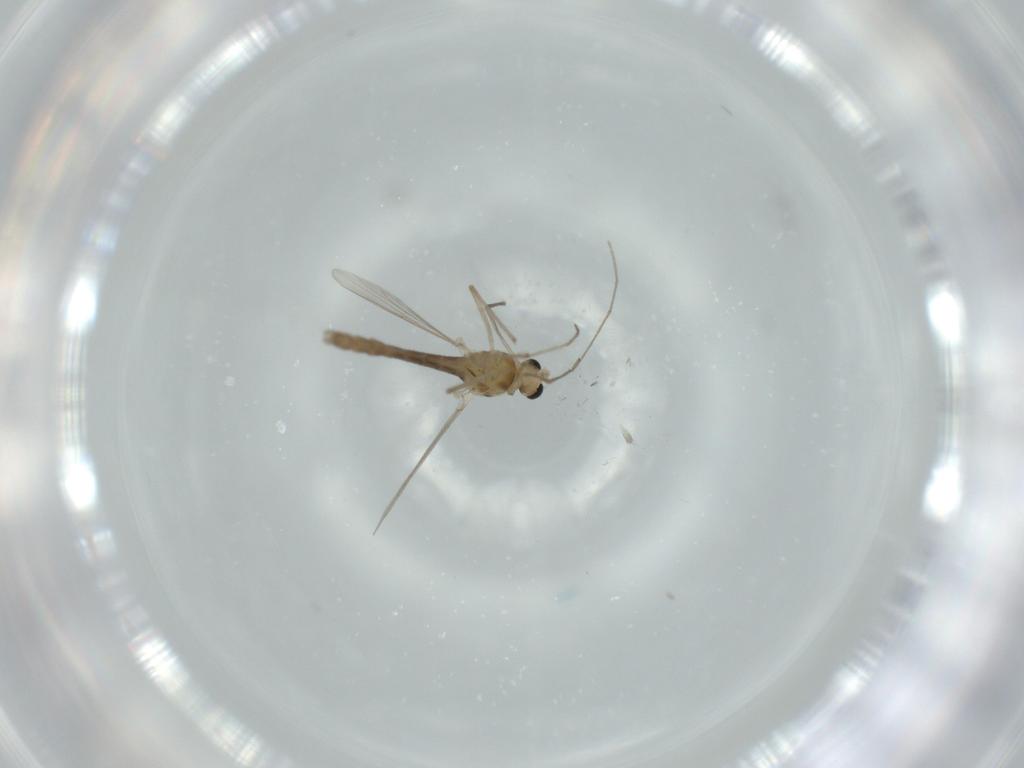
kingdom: Animalia
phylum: Arthropoda
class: Insecta
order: Diptera
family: Chironomidae
